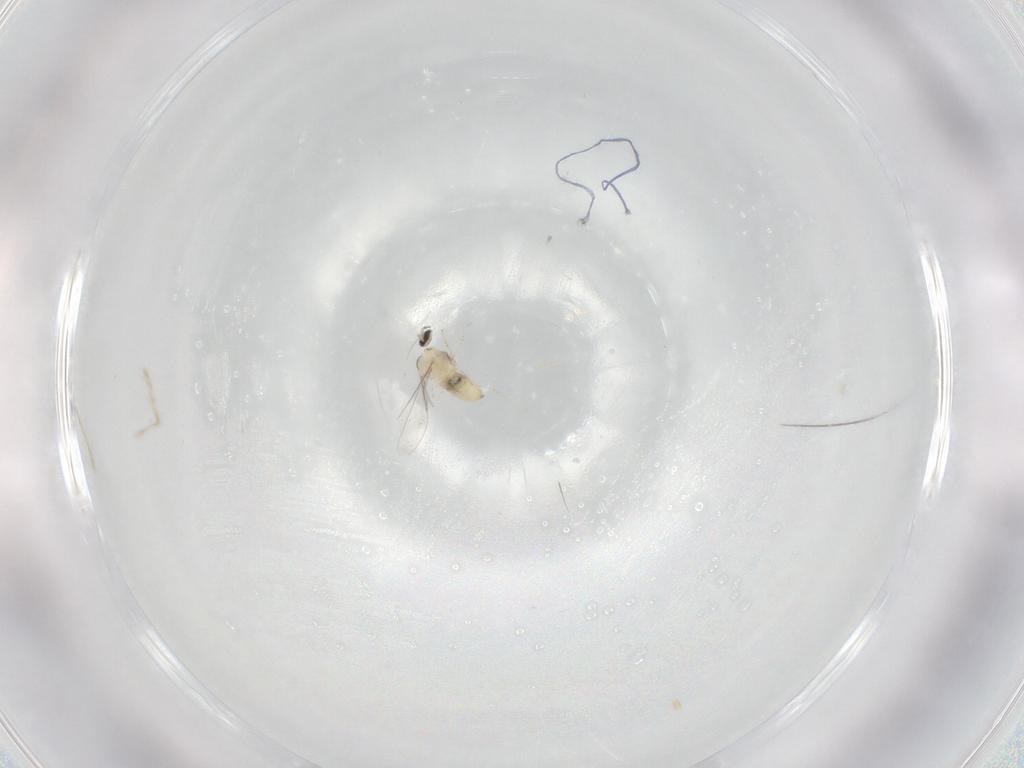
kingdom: Animalia
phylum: Arthropoda
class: Insecta
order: Diptera
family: Cecidomyiidae
